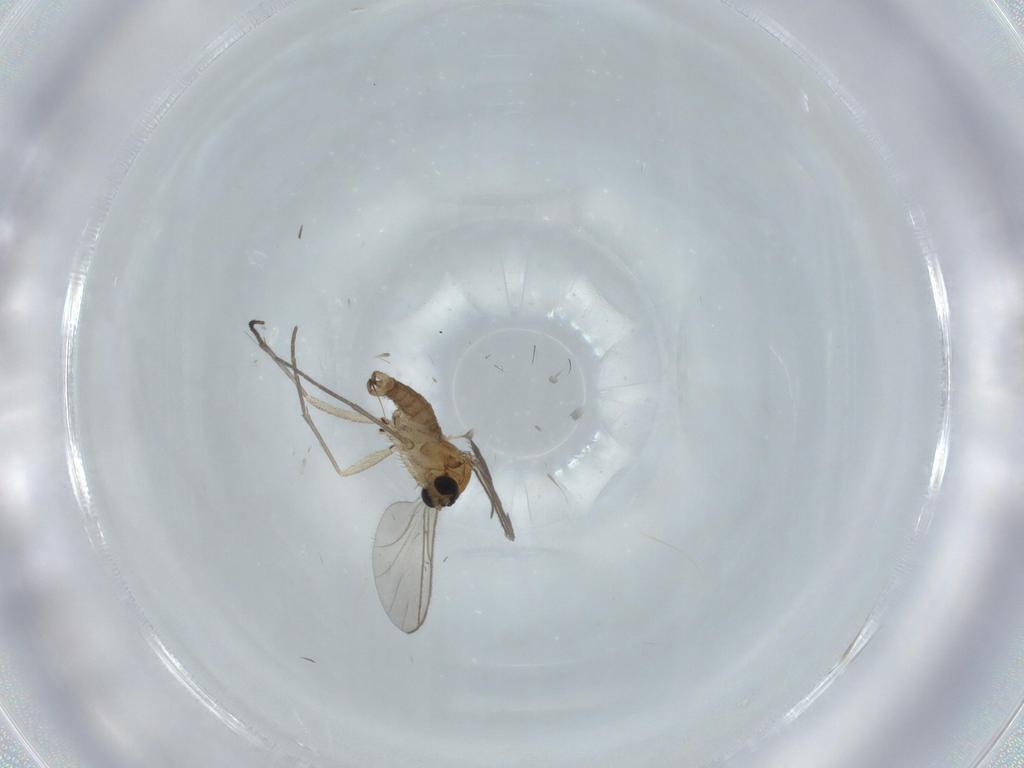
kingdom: Animalia
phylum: Arthropoda
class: Insecta
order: Diptera
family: Sciaridae
